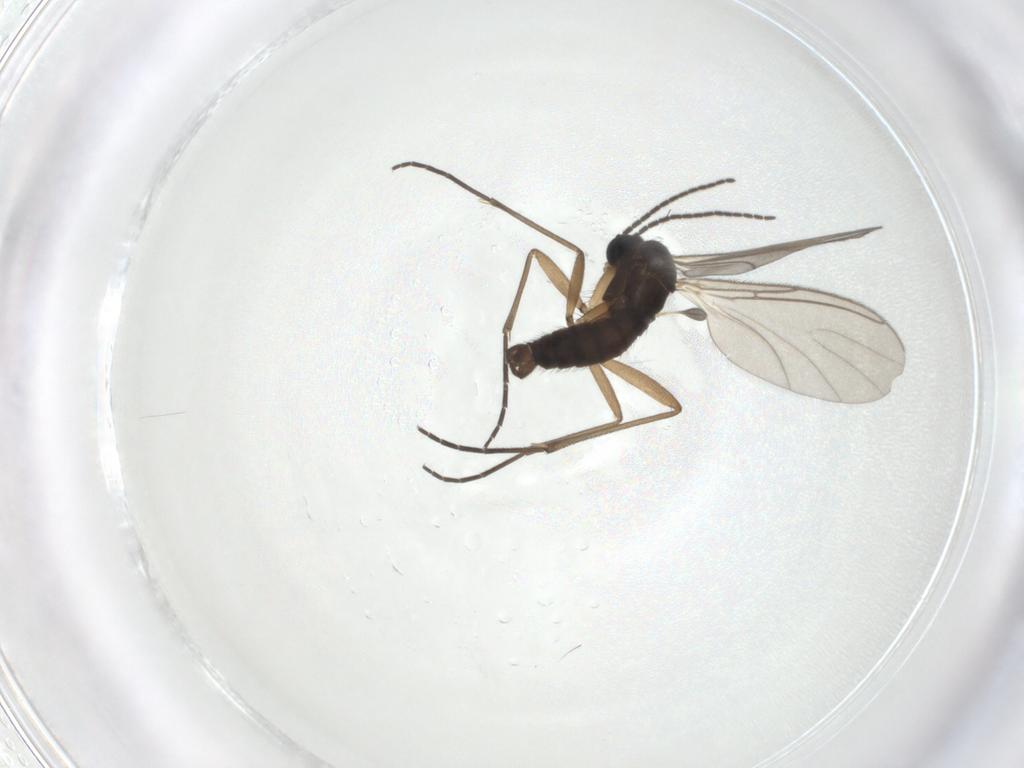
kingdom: Animalia
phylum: Arthropoda
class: Insecta
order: Diptera
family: Sciaridae
